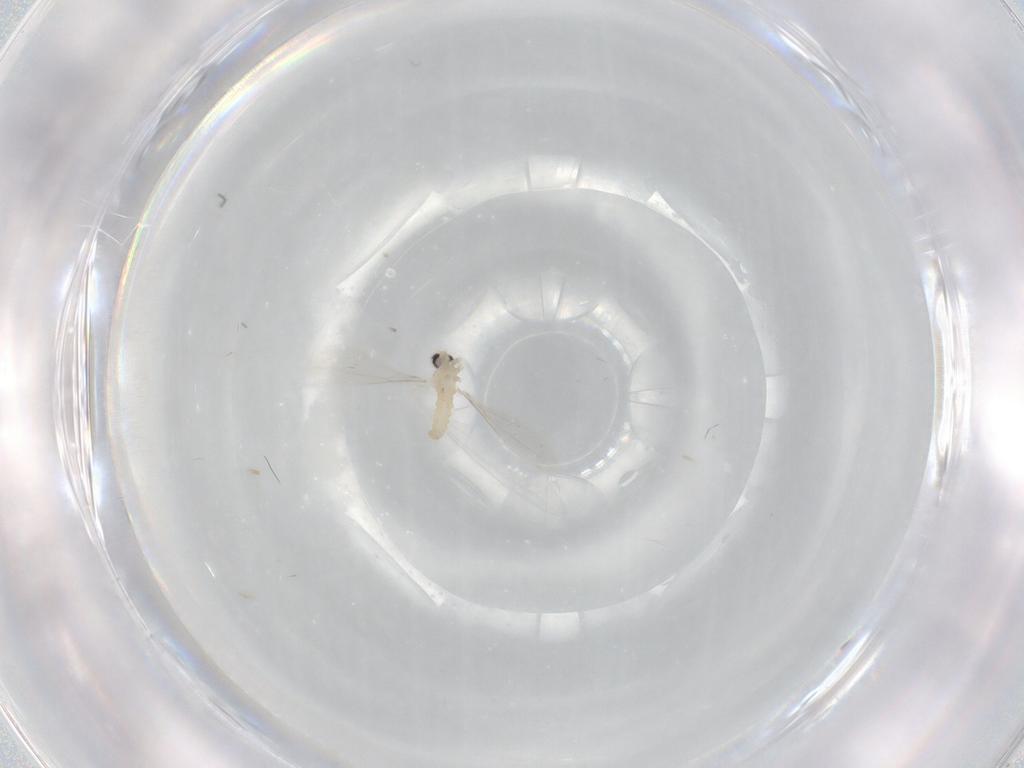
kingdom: Animalia
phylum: Arthropoda
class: Insecta
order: Diptera
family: Cecidomyiidae
